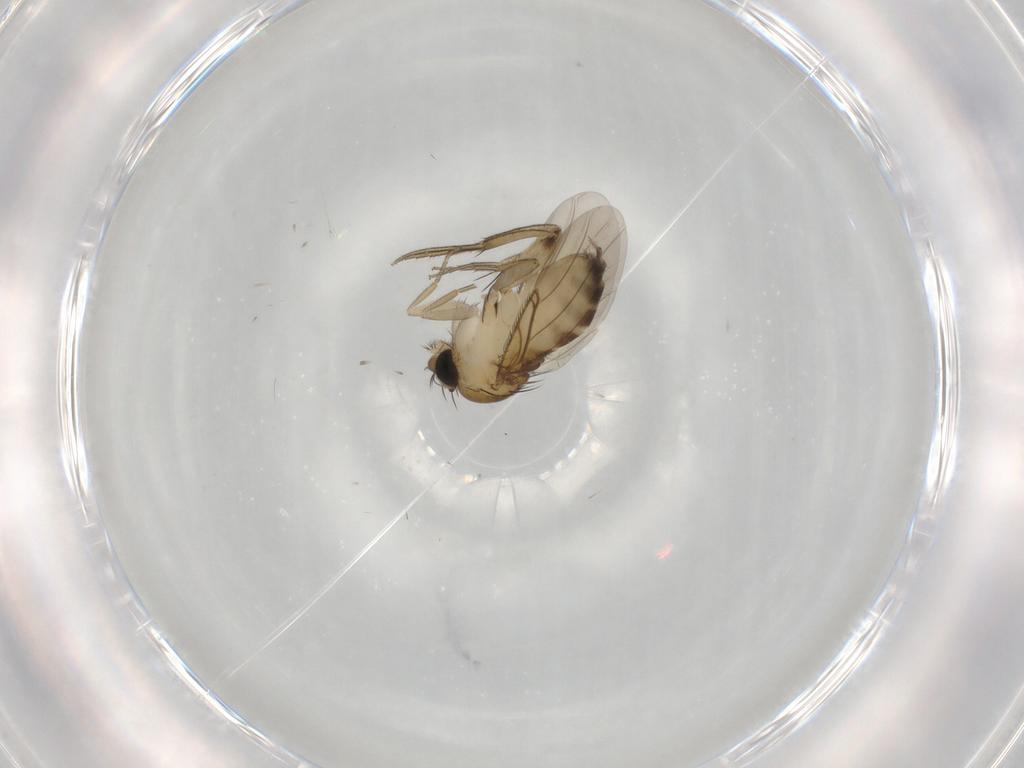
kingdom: Animalia
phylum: Arthropoda
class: Insecta
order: Diptera
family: Phoridae
